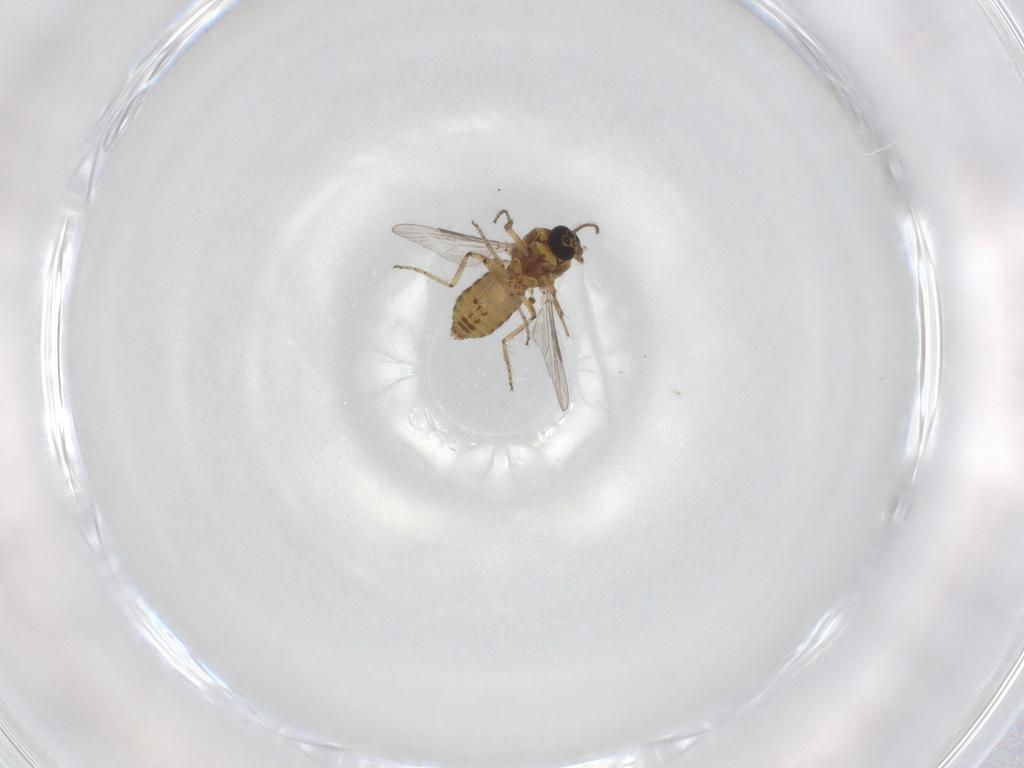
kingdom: Animalia
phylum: Arthropoda
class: Insecta
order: Diptera
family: Ceratopogonidae
